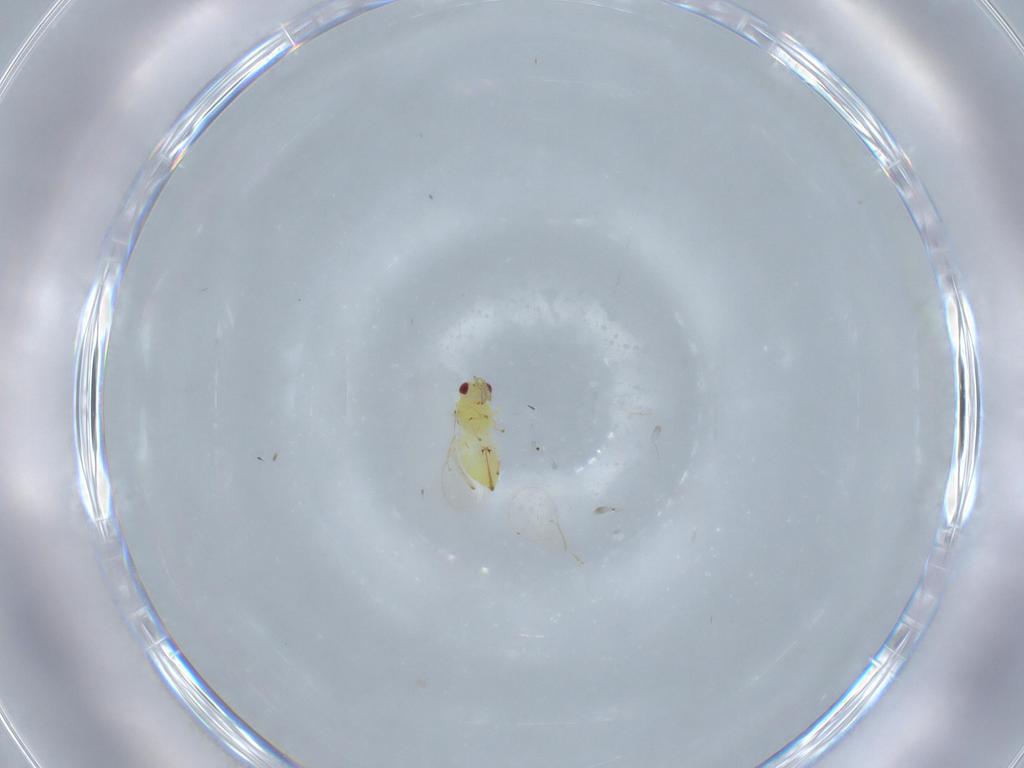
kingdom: Animalia
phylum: Arthropoda
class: Insecta
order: Hymenoptera
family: Eulophidae
